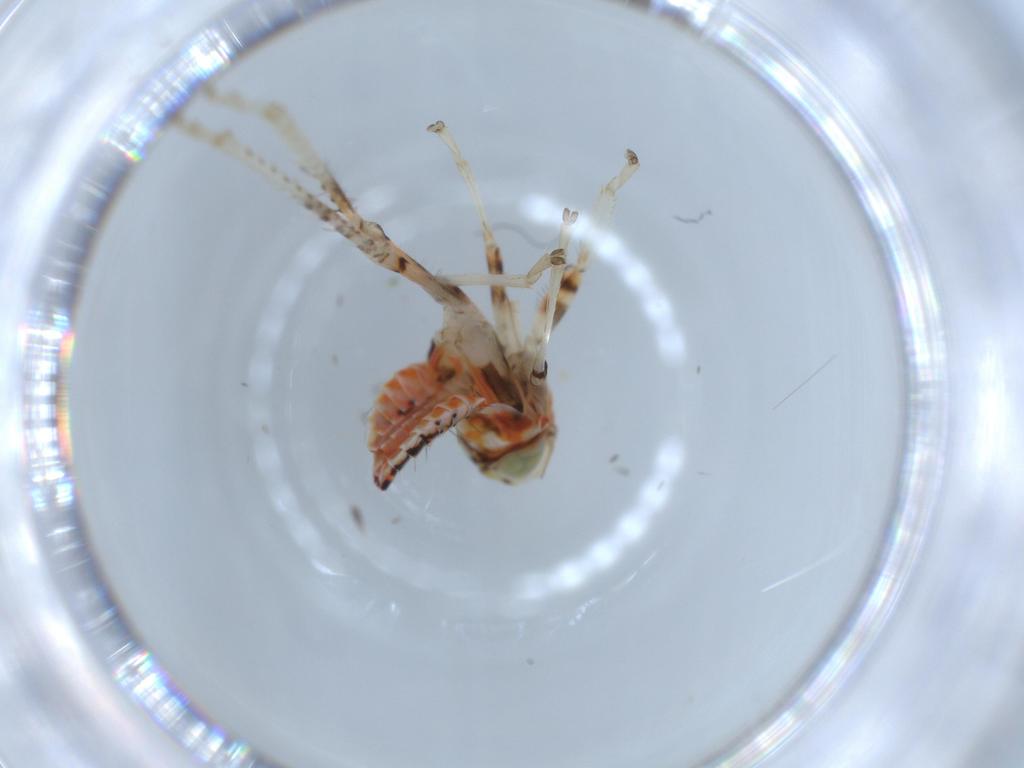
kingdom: Animalia
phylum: Arthropoda
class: Insecta
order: Hemiptera
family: Cicadellidae
